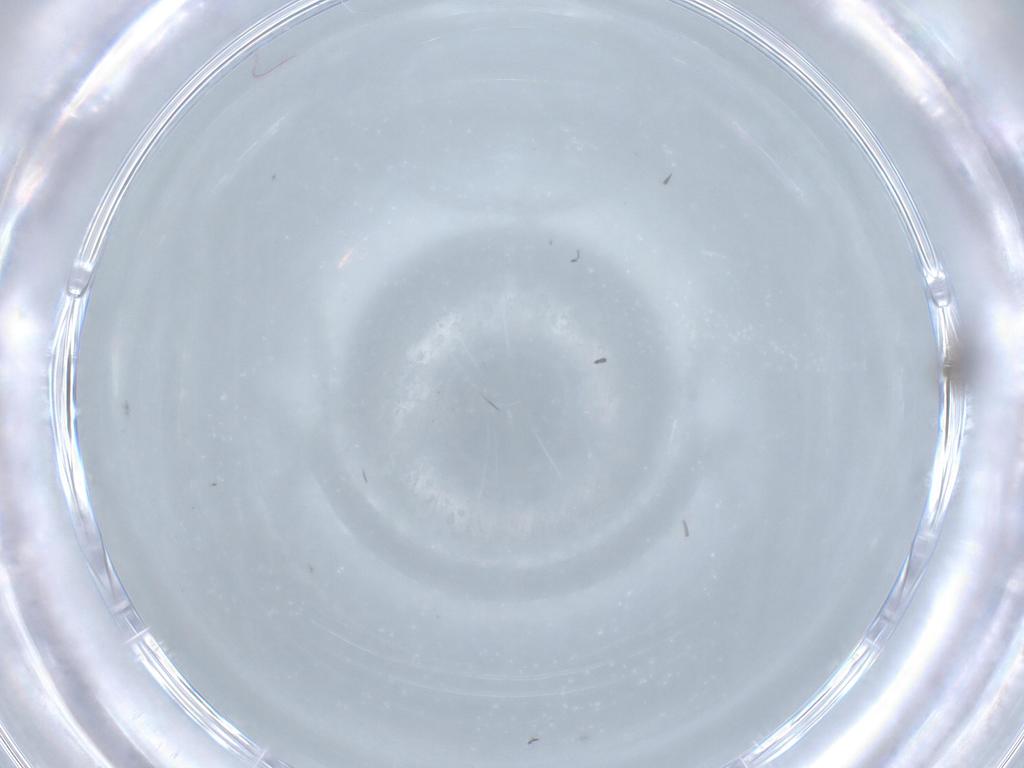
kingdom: Animalia
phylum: Arthropoda
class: Insecta
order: Diptera
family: Psychodidae
